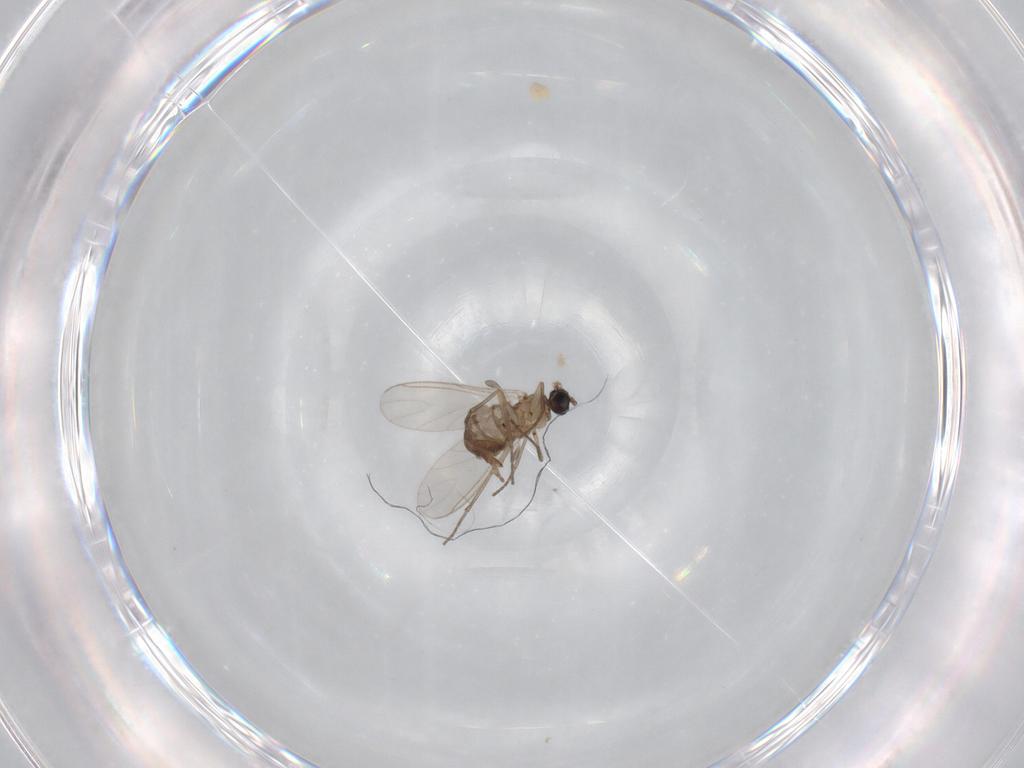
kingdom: Animalia
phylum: Arthropoda
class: Insecta
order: Diptera
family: Sciaridae
